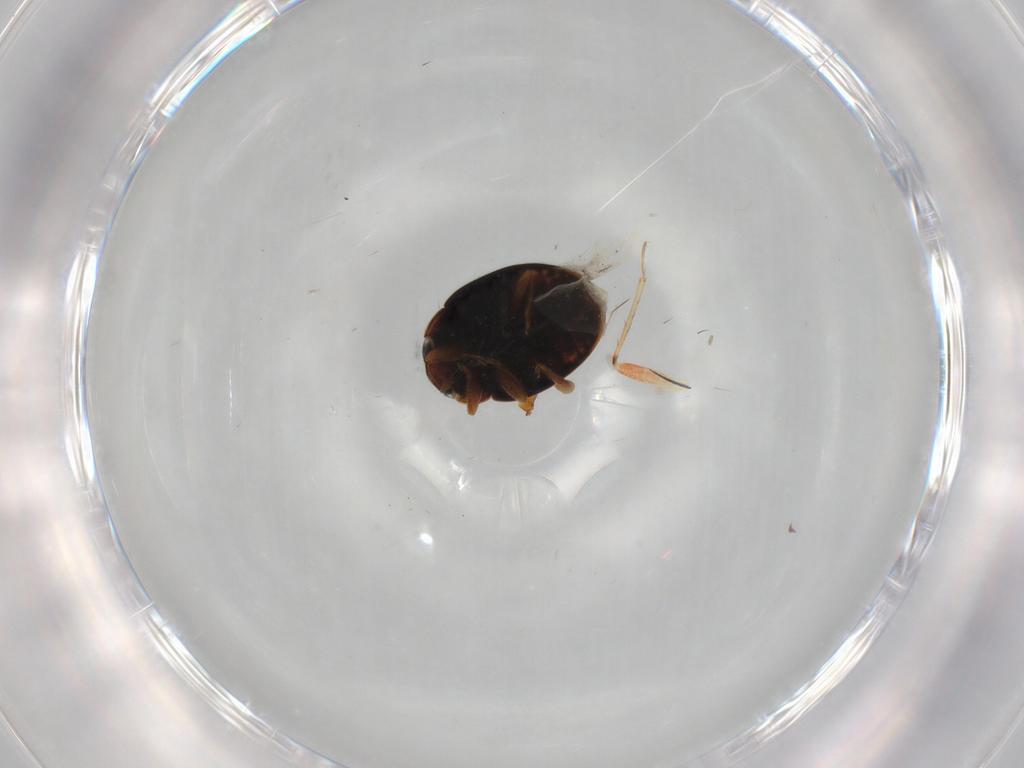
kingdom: Animalia
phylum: Arthropoda
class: Insecta
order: Coleoptera
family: Coccinellidae
